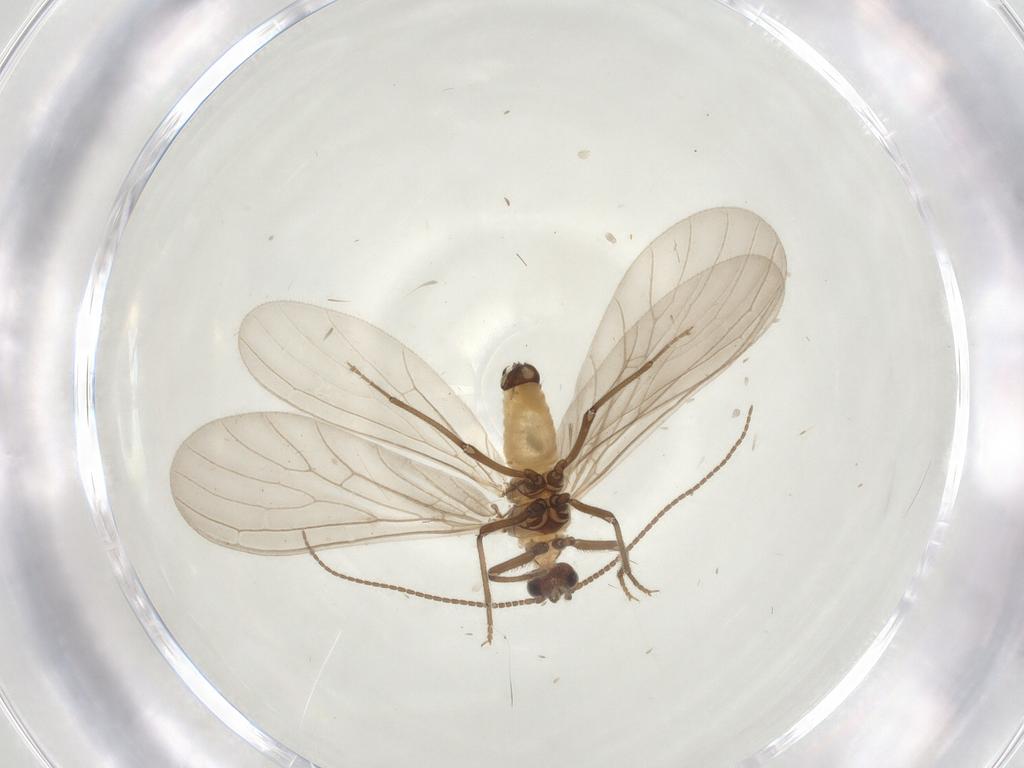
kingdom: Animalia
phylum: Arthropoda
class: Insecta
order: Neuroptera
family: Coniopterygidae
